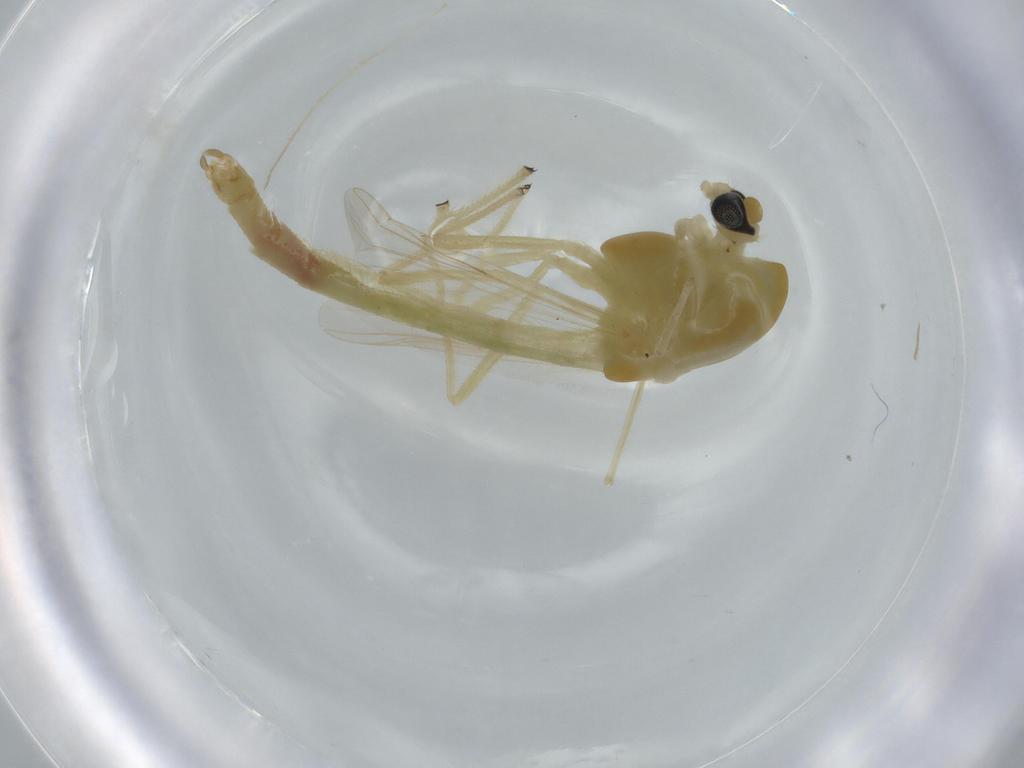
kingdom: Animalia
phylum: Arthropoda
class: Insecta
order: Diptera
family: Chironomidae
